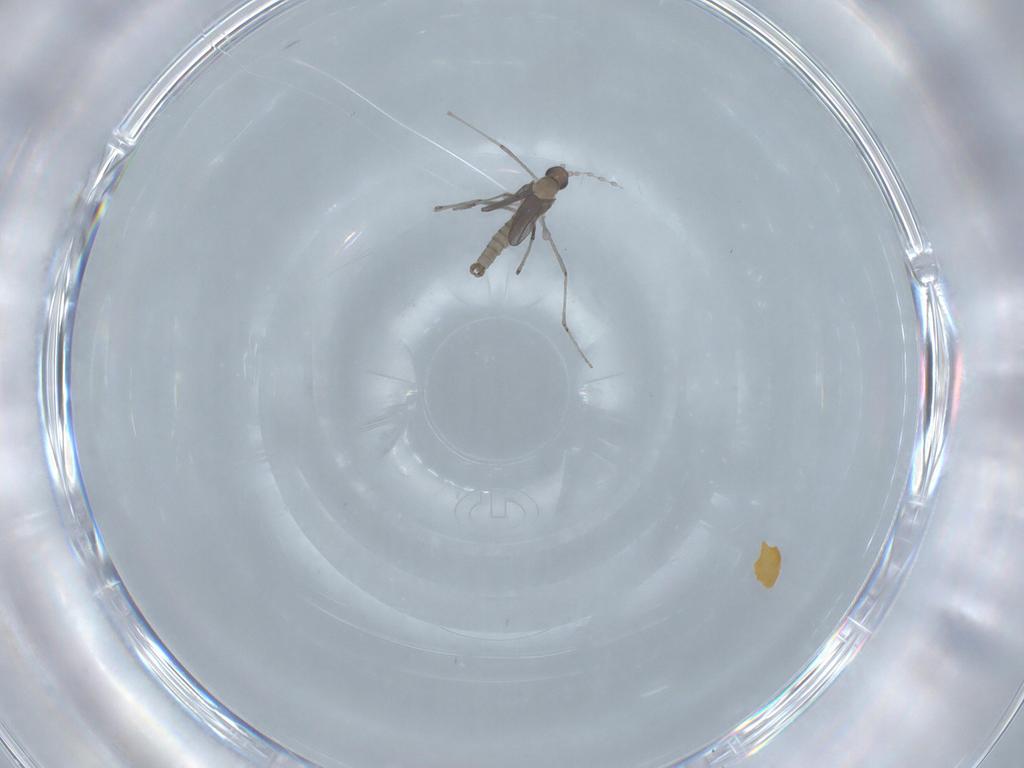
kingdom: Animalia
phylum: Arthropoda
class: Insecta
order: Diptera
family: Cecidomyiidae
